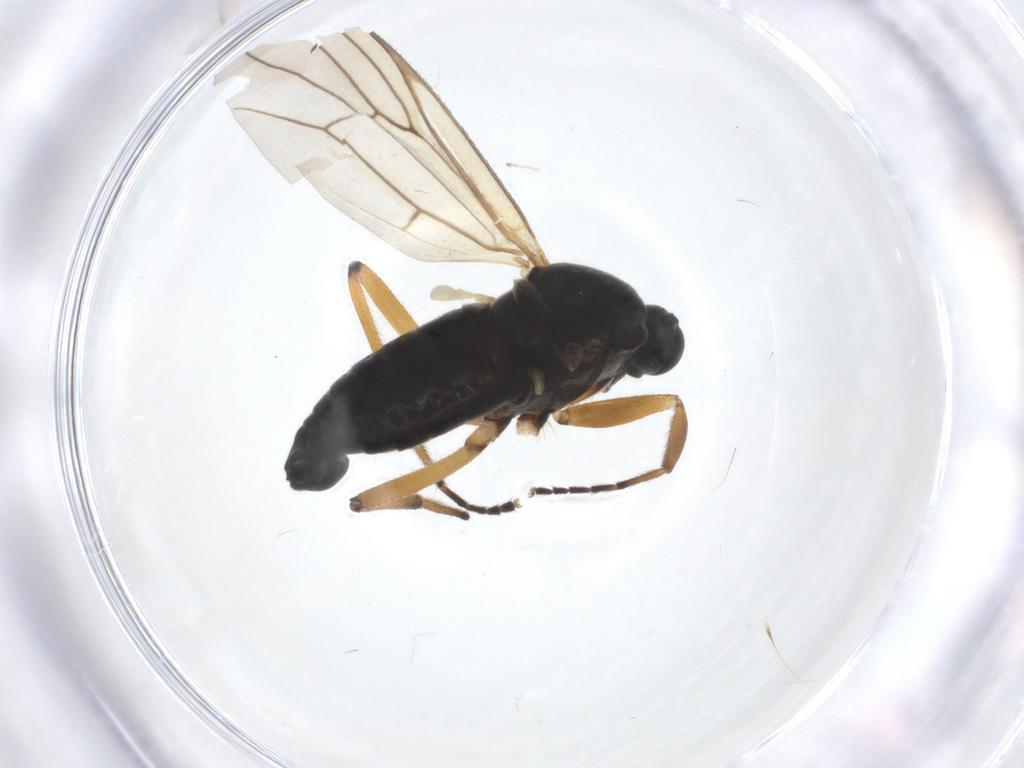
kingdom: Animalia
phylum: Arthropoda
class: Insecta
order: Diptera
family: Hybotidae
